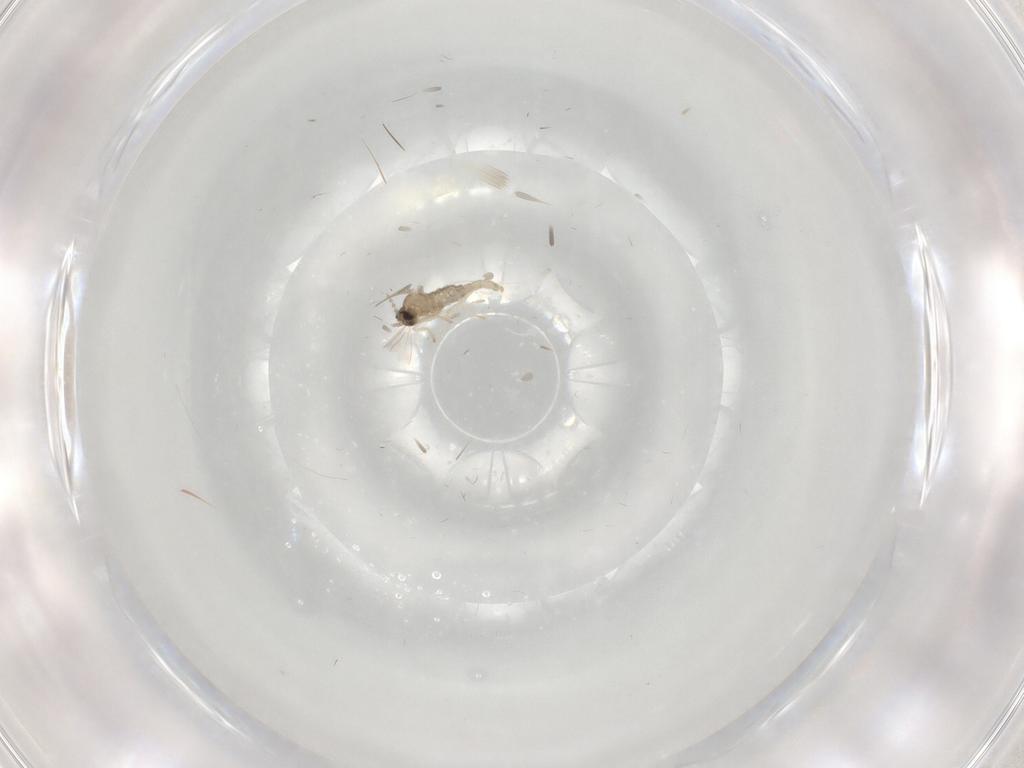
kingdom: Animalia
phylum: Arthropoda
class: Insecta
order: Diptera
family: Sphaeroceridae
